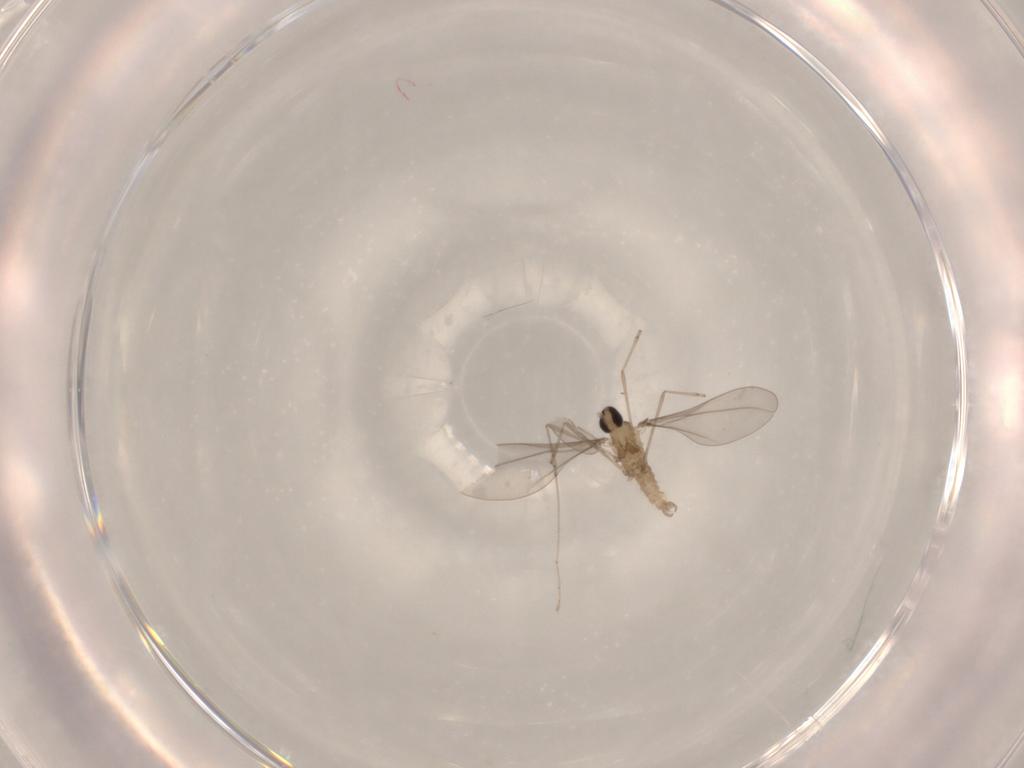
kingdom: Animalia
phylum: Arthropoda
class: Insecta
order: Diptera
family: Cecidomyiidae
